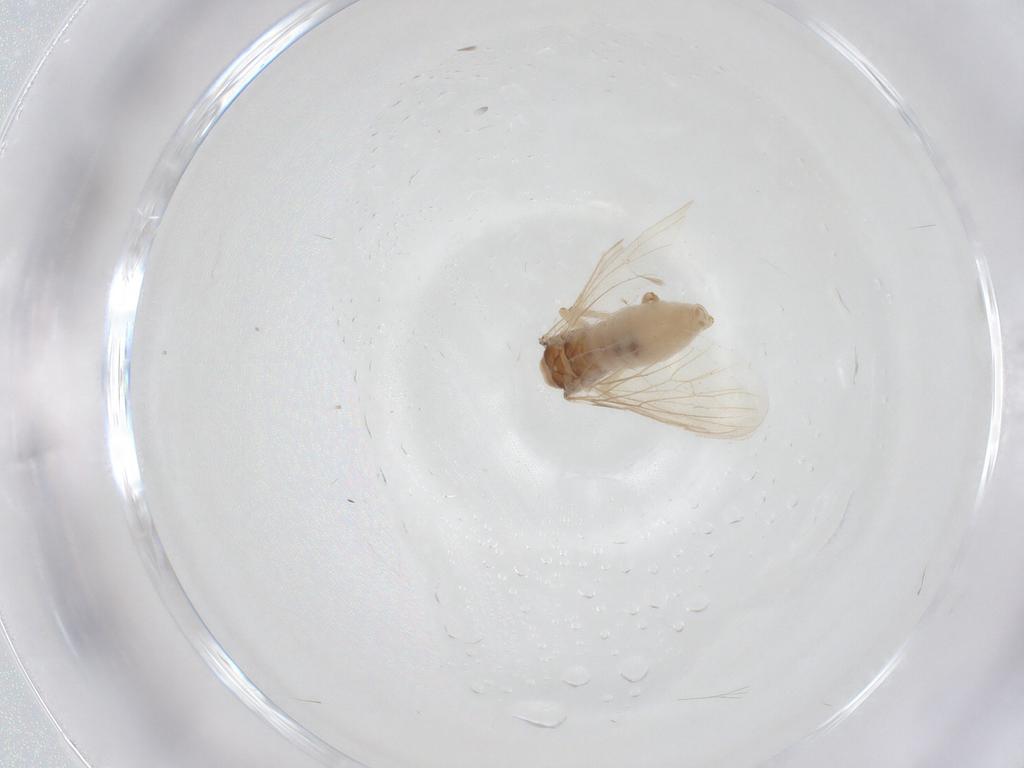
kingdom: Animalia
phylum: Arthropoda
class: Insecta
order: Neuroptera
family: Coniopterygidae
